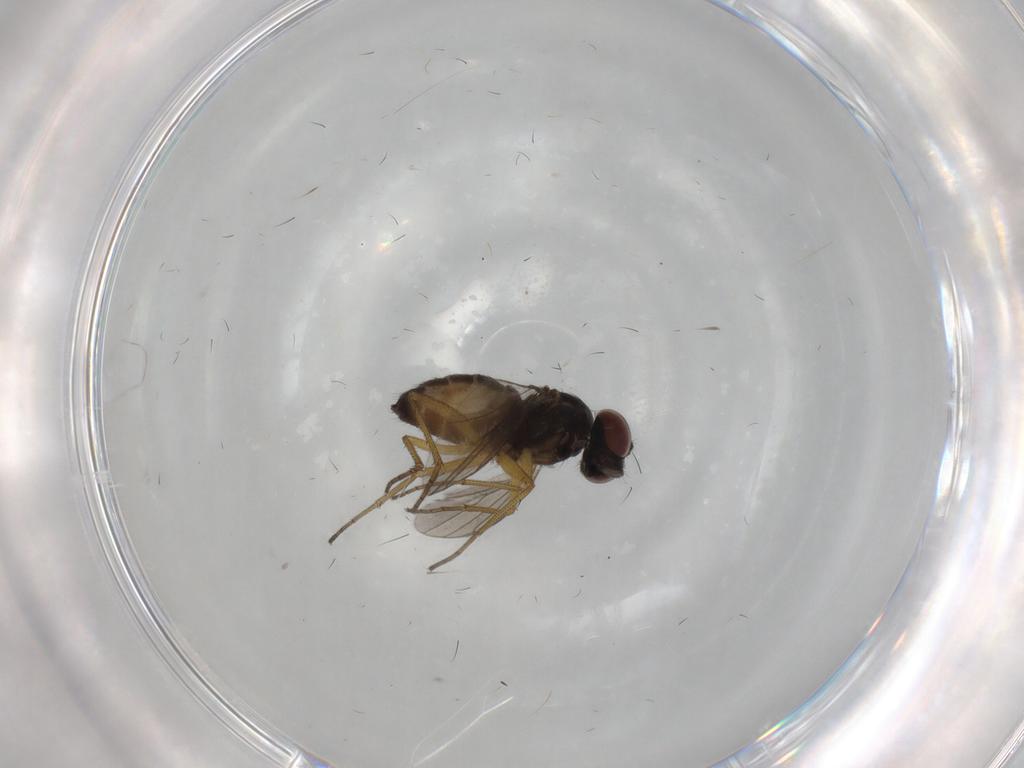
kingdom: Animalia
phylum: Arthropoda
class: Insecta
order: Diptera
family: Dolichopodidae
